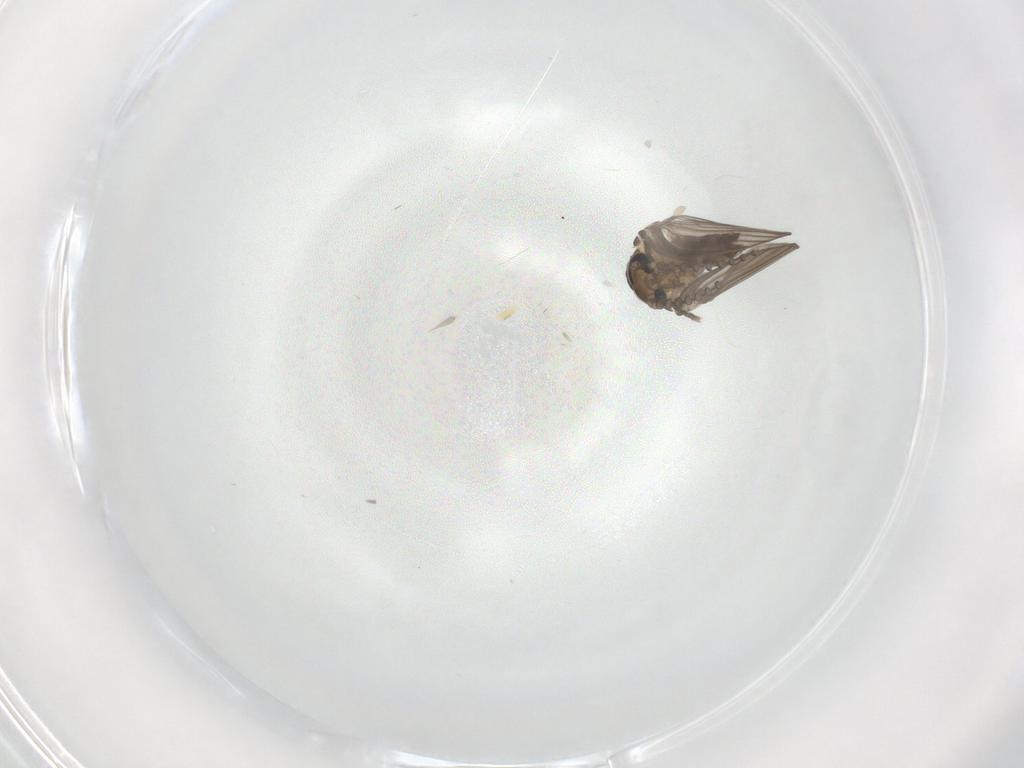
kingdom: Animalia
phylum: Arthropoda
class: Insecta
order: Diptera
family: Cecidomyiidae
